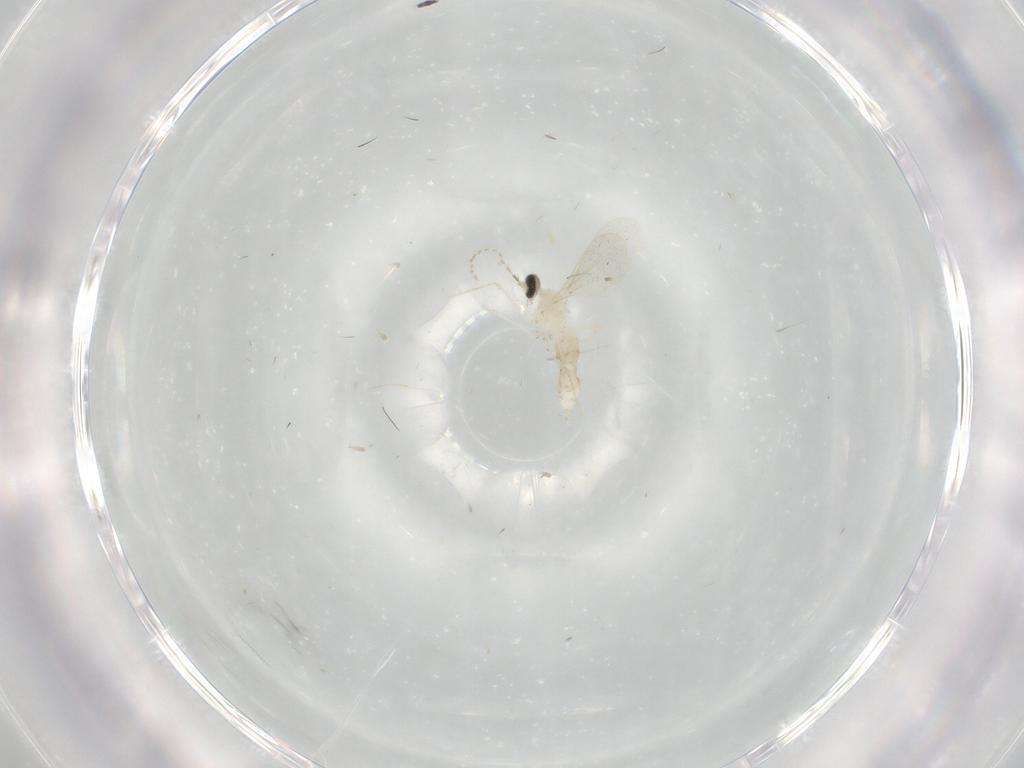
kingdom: Animalia
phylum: Arthropoda
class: Insecta
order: Diptera
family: Cecidomyiidae
